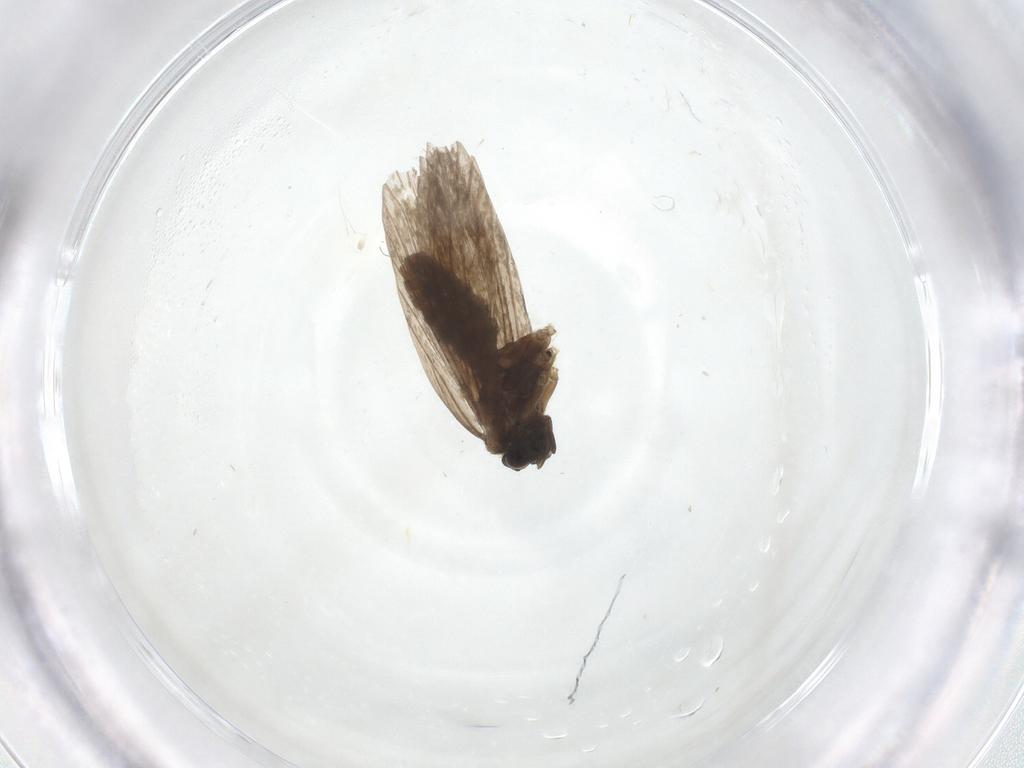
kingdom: Animalia
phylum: Arthropoda
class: Insecta
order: Lepidoptera
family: Micropterigidae
